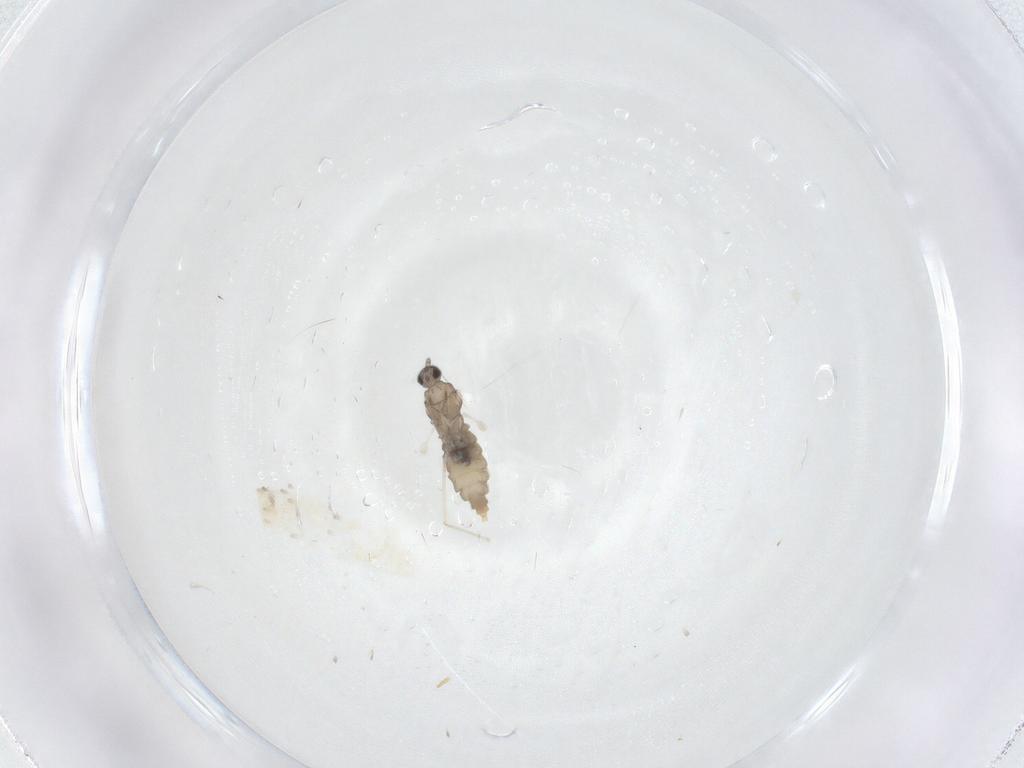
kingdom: Animalia
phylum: Arthropoda
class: Insecta
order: Diptera
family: Cecidomyiidae
